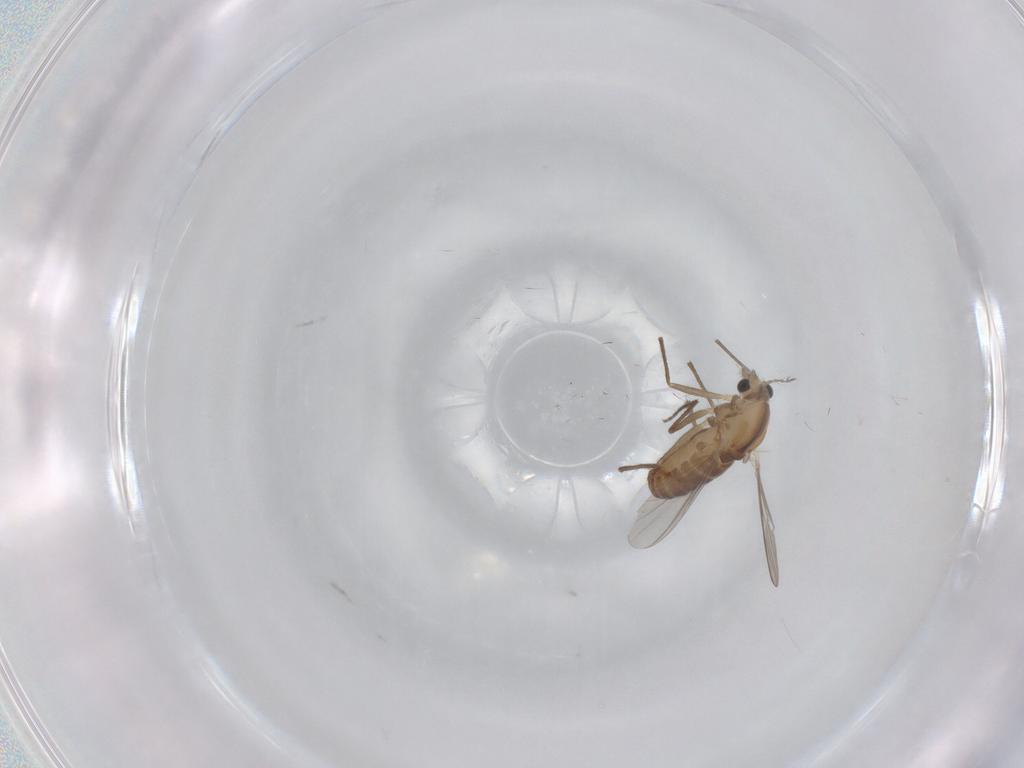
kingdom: Animalia
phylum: Arthropoda
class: Insecta
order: Diptera
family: Chironomidae
